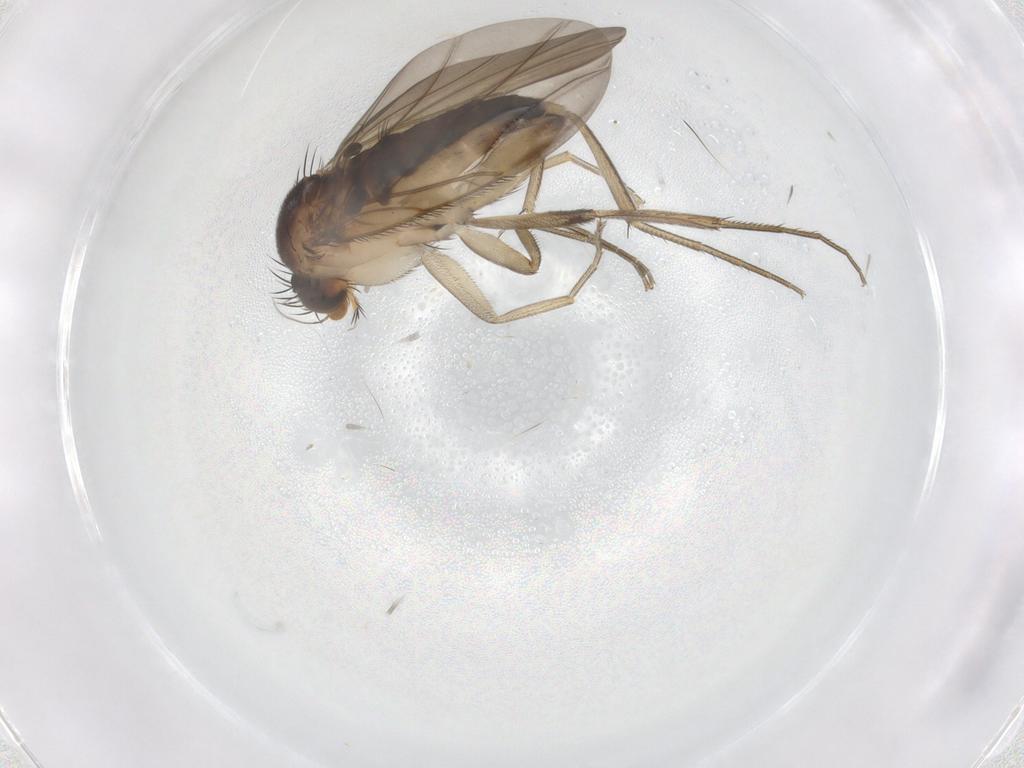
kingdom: Animalia
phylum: Arthropoda
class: Insecta
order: Diptera
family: Phoridae
